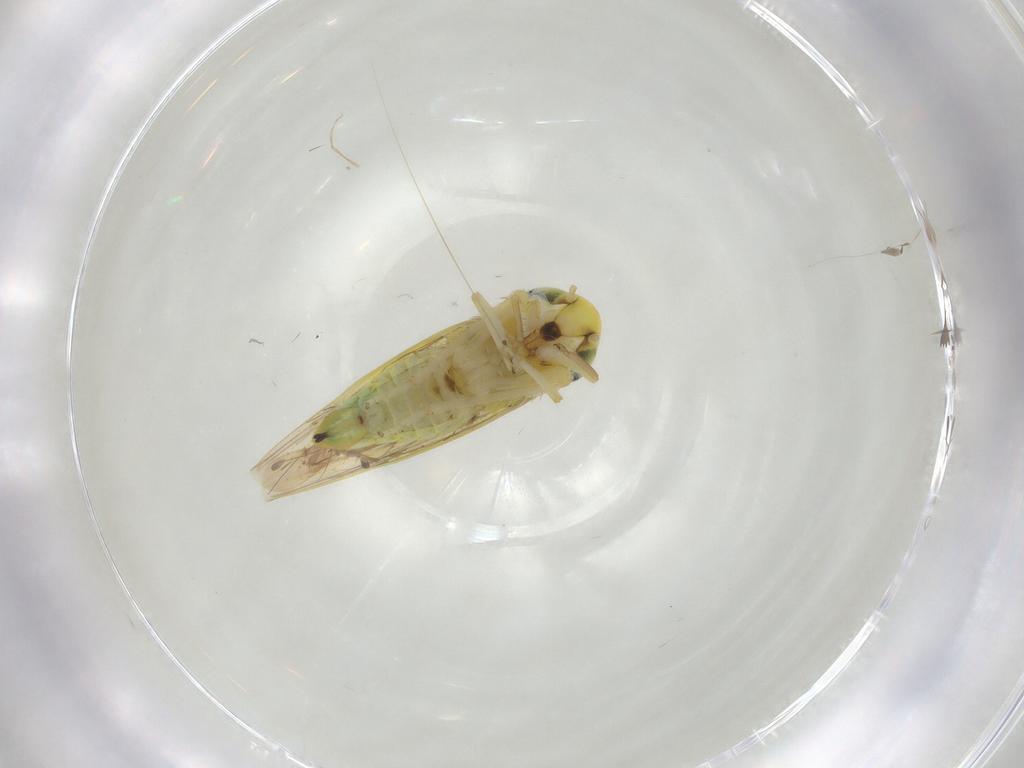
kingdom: Animalia
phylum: Arthropoda
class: Insecta
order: Hemiptera
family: Cicadellidae
